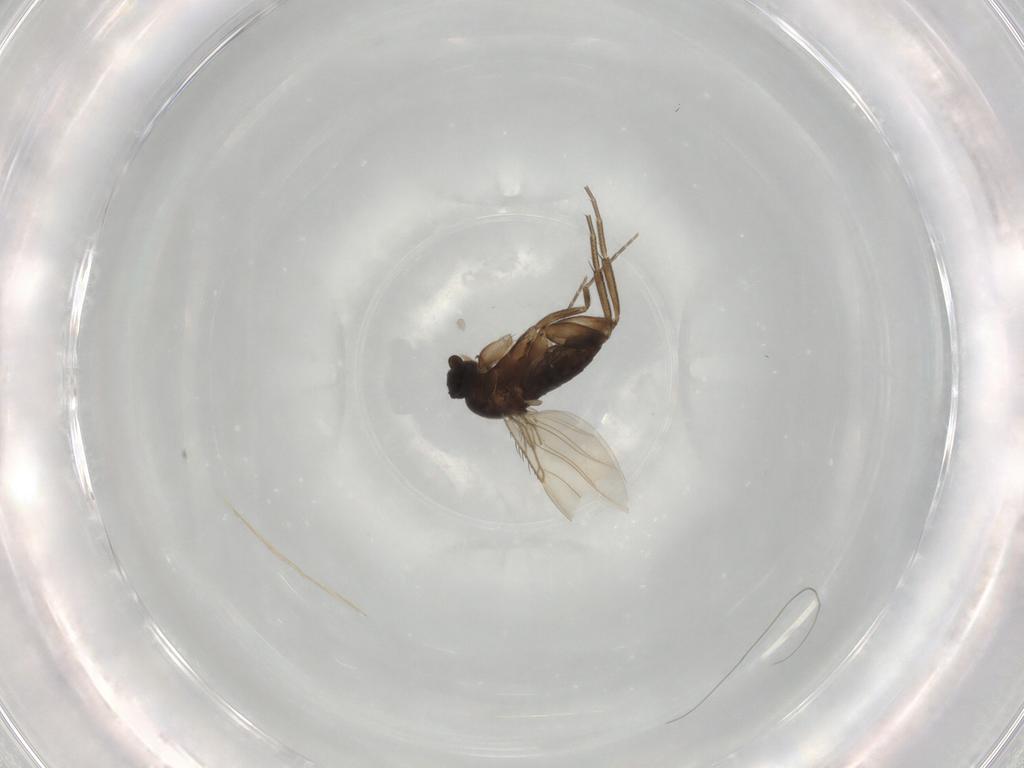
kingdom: Animalia
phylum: Arthropoda
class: Insecta
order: Diptera
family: Phoridae
